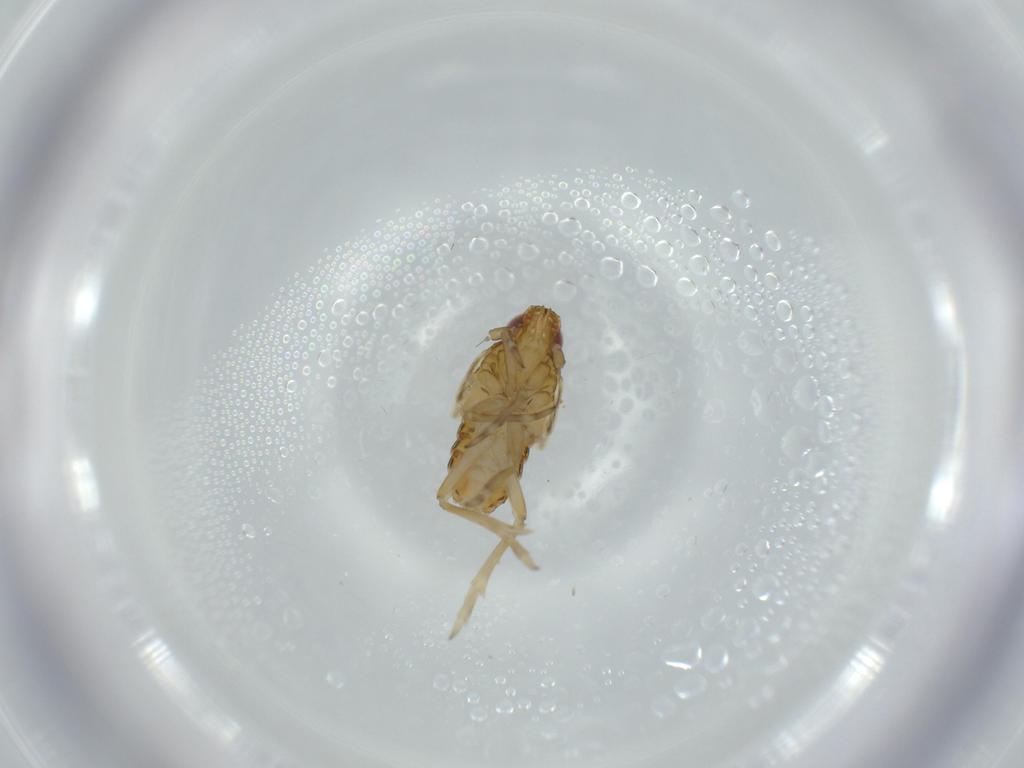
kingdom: Animalia
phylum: Arthropoda
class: Insecta
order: Hemiptera
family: Delphacidae
